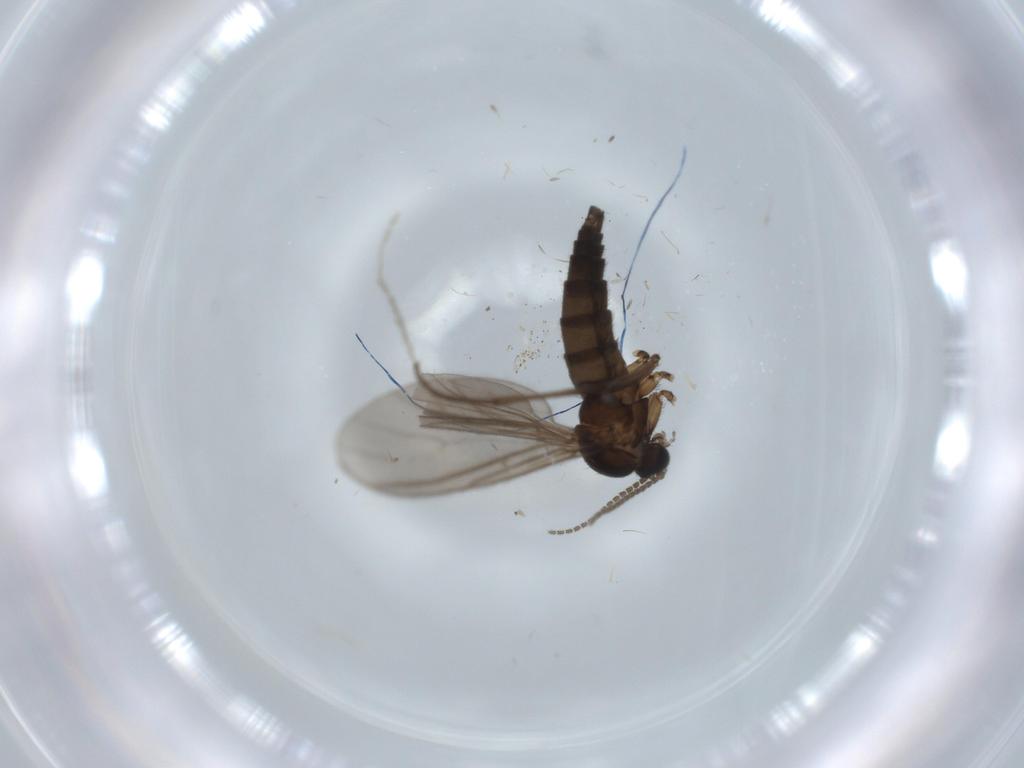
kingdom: Animalia
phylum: Arthropoda
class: Insecta
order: Diptera
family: Sciaridae
